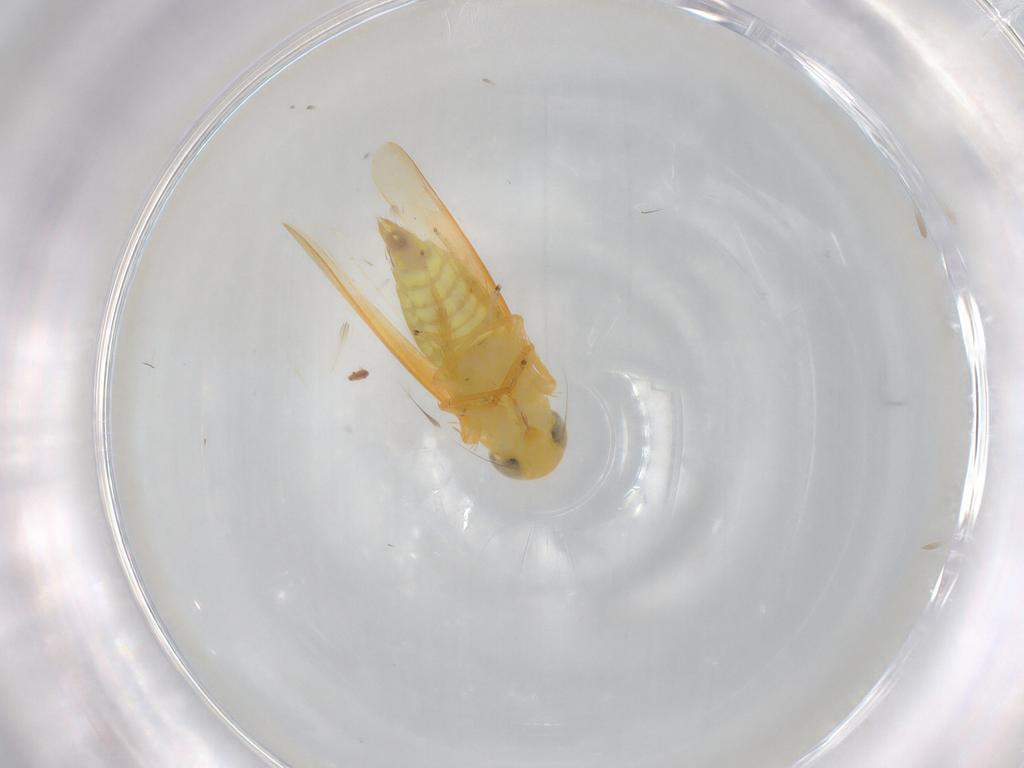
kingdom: Animalia
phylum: Arthropoda
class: Insecta
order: Hemiptera
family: Cicadellidae
